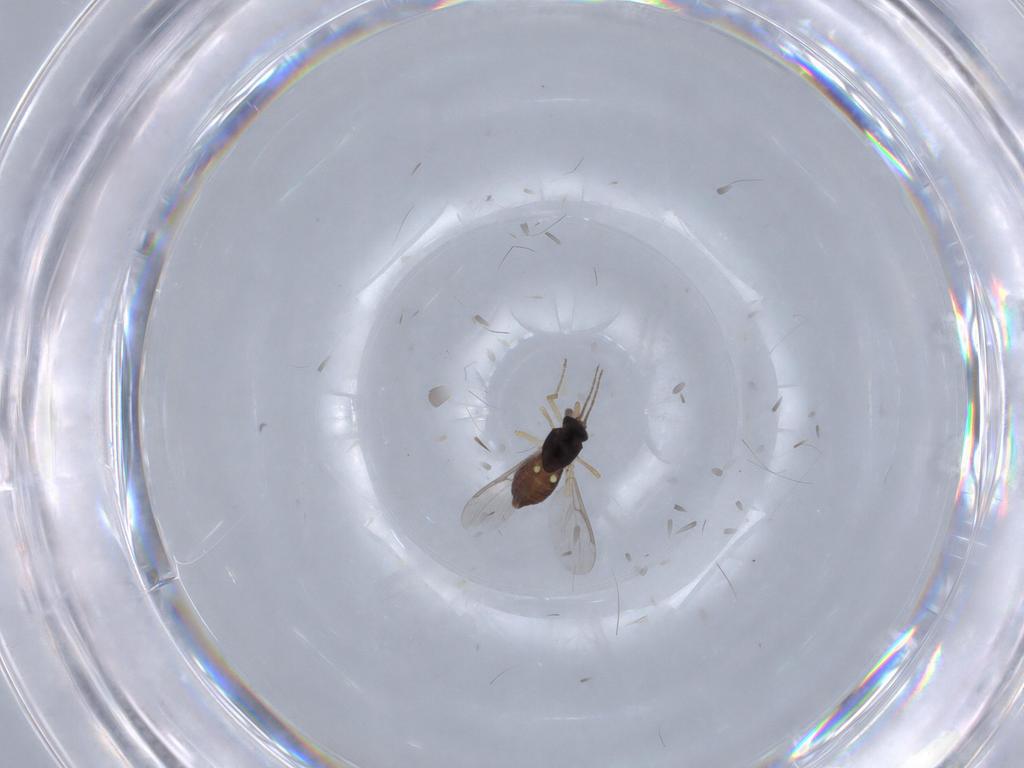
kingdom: Animalia
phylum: Arthropoda
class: Insecta
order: Diptera
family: Ceratopogonidae
